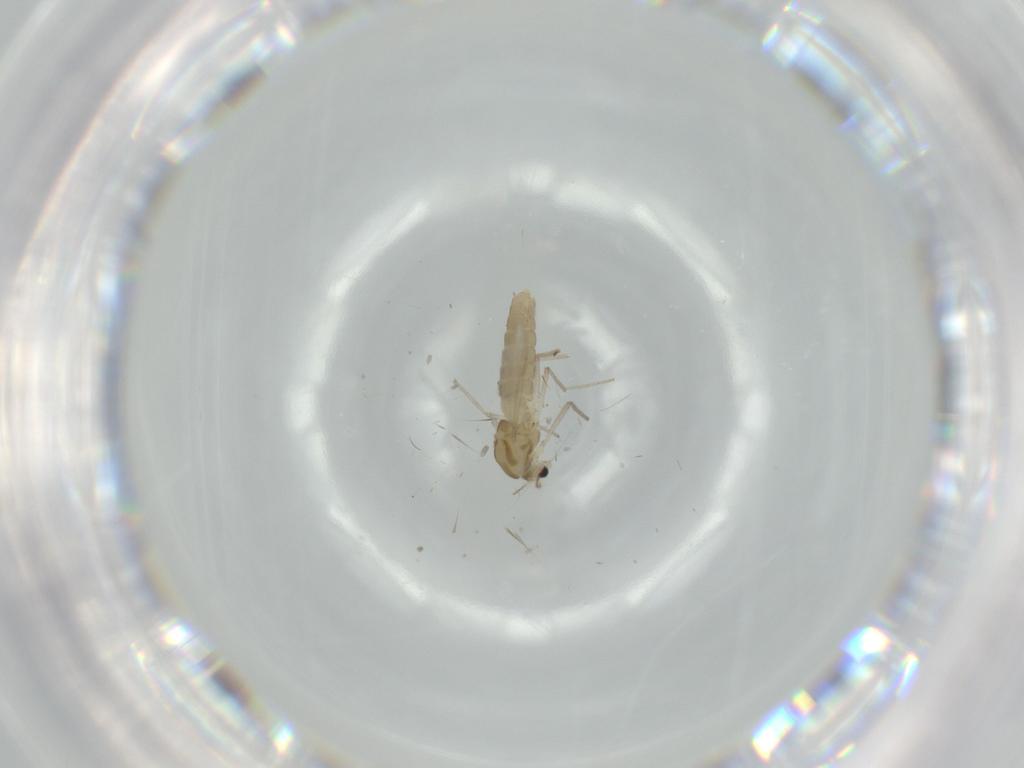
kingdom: Animalia
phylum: Arthropoda
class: Insecta
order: Diptera
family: Chironomidae
